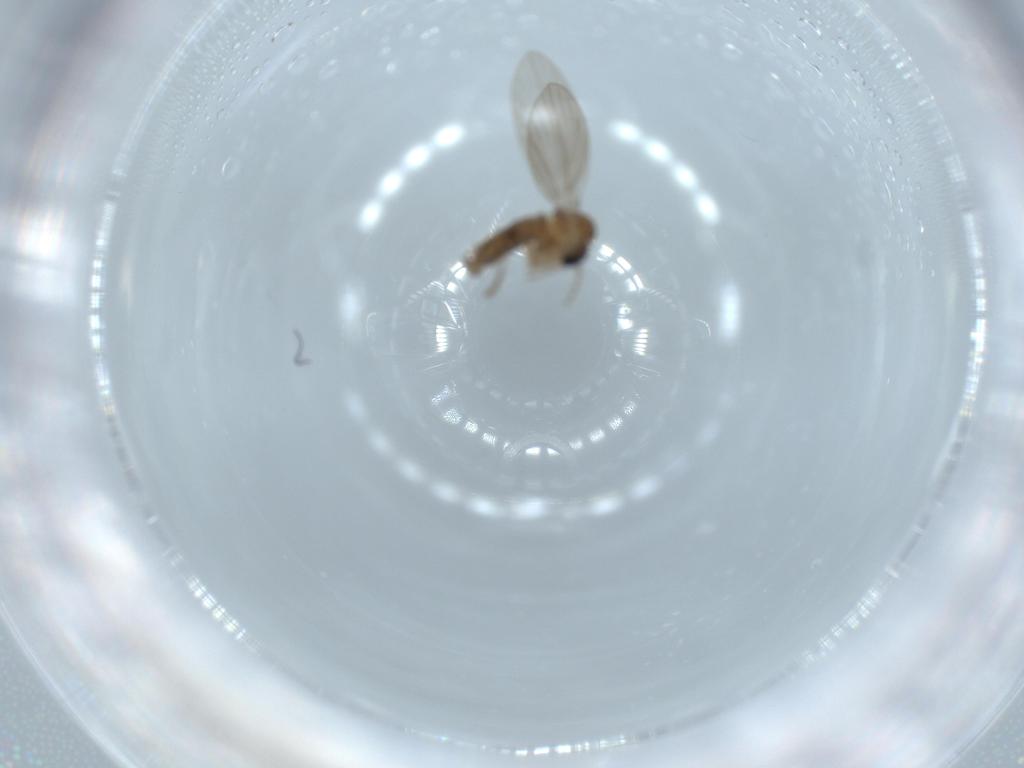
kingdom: Animalia
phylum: Arthropoda
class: Insecta
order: Diptera
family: Psychodidae
